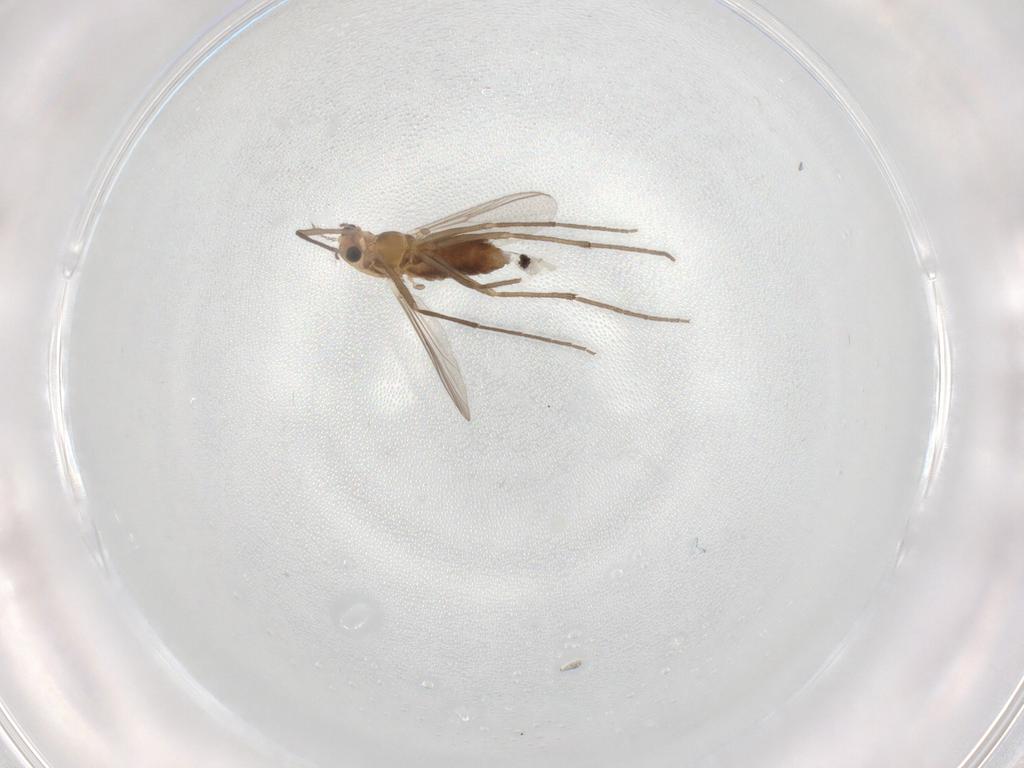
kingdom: Animalia
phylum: Arthropoda
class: Insecta
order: Diptera
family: Chironomidae
